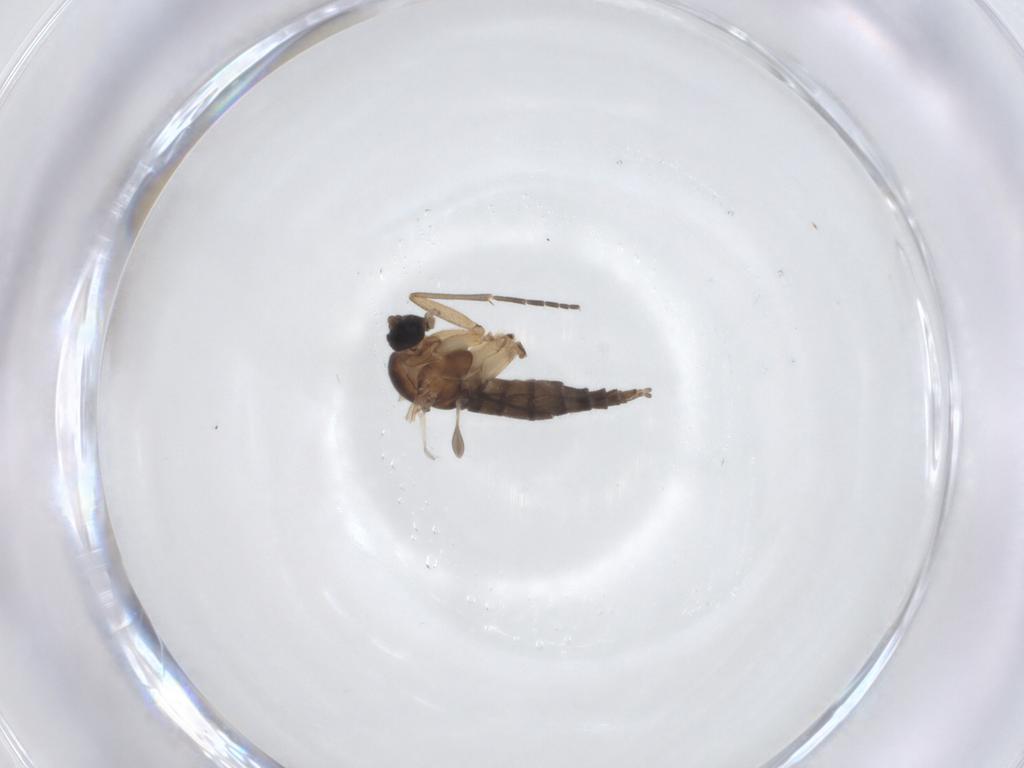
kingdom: Animalia
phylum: Arthropoda
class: Insecta
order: Diptera
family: Sciaridae
